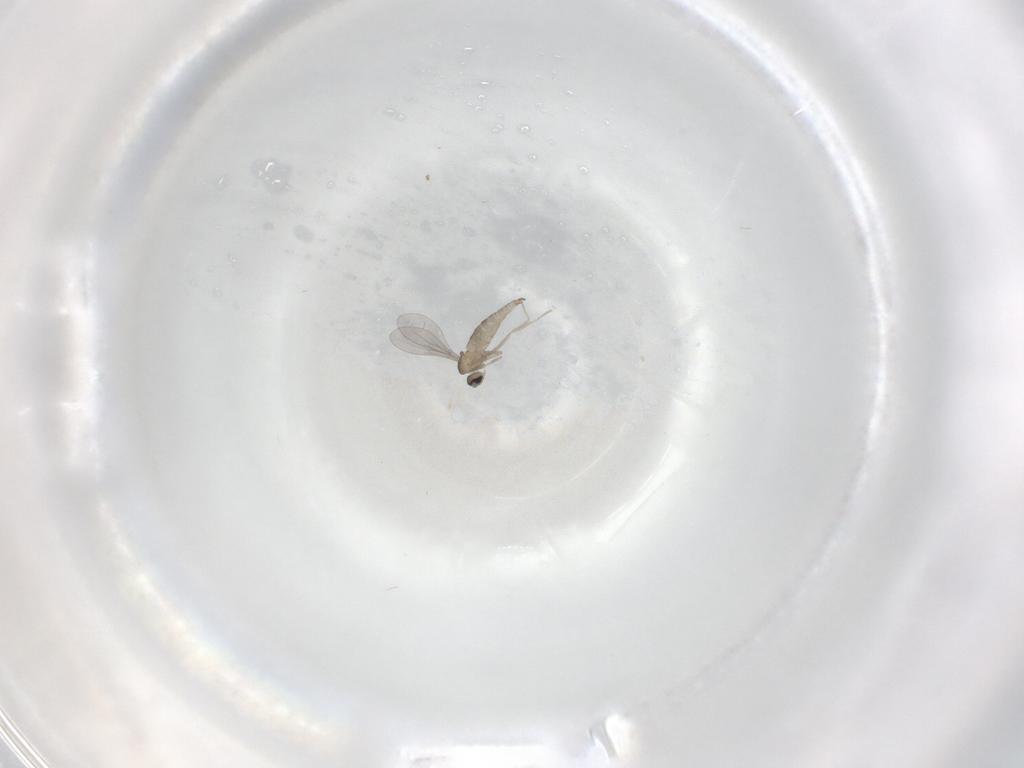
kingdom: Animalia
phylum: Arthropoda
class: Insecta
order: Diptera
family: Cecidomyiidae
